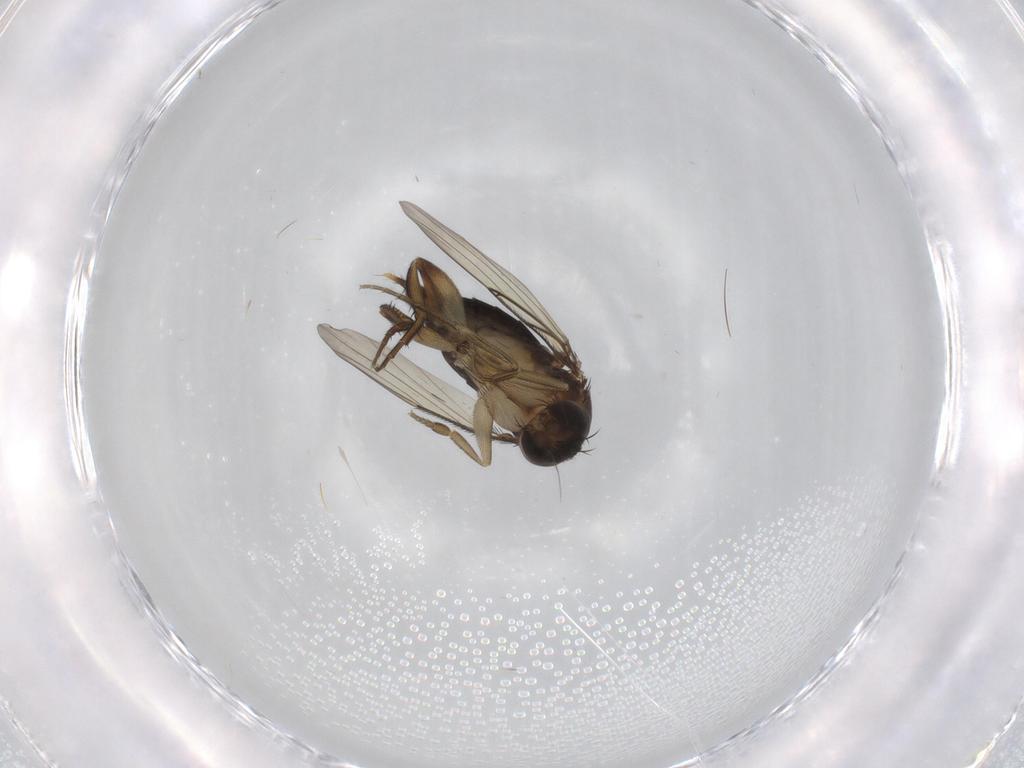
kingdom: Animalia
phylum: Arthropoda
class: Insecta
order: Diptera
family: Phoridae
